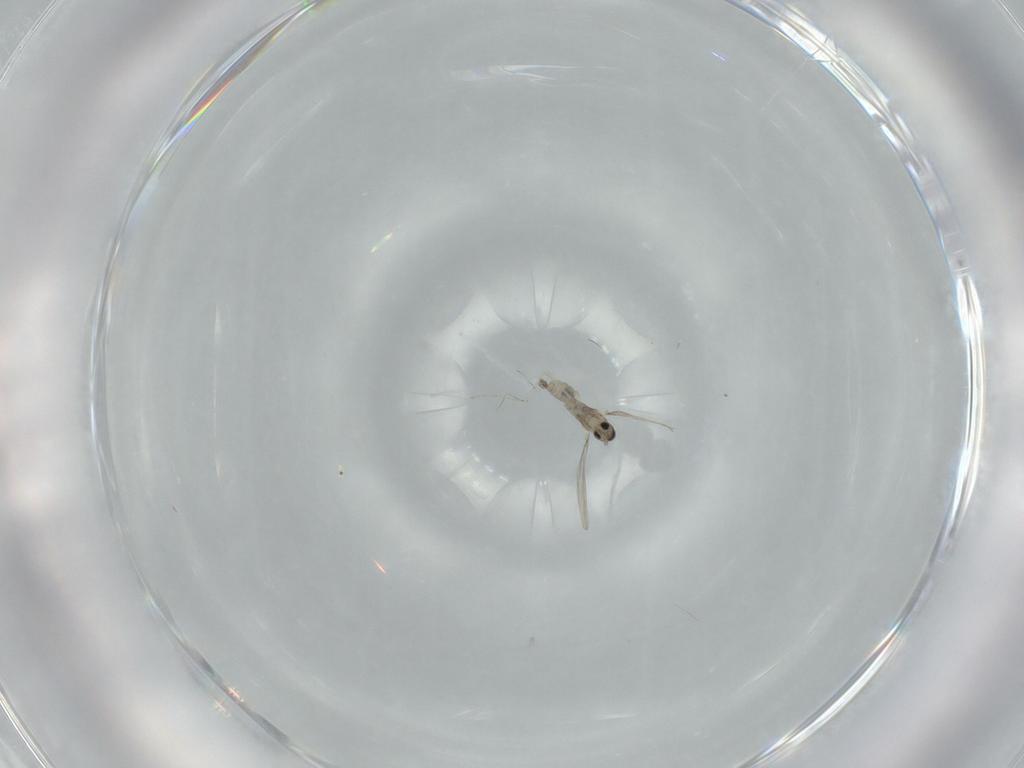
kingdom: Animalia
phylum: Arthropoda
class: Insecta
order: Diptera
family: Cecidomyiidae
